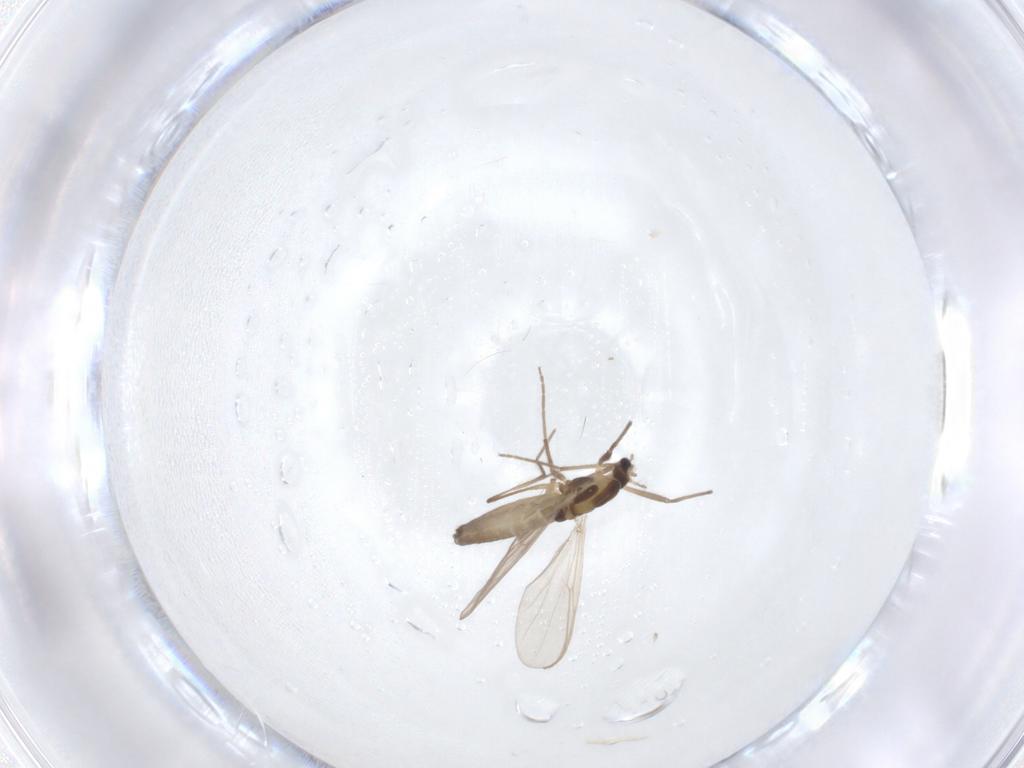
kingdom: Animalia
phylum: Arthropoda
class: Insecta
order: Diptera
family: Chironomidae
